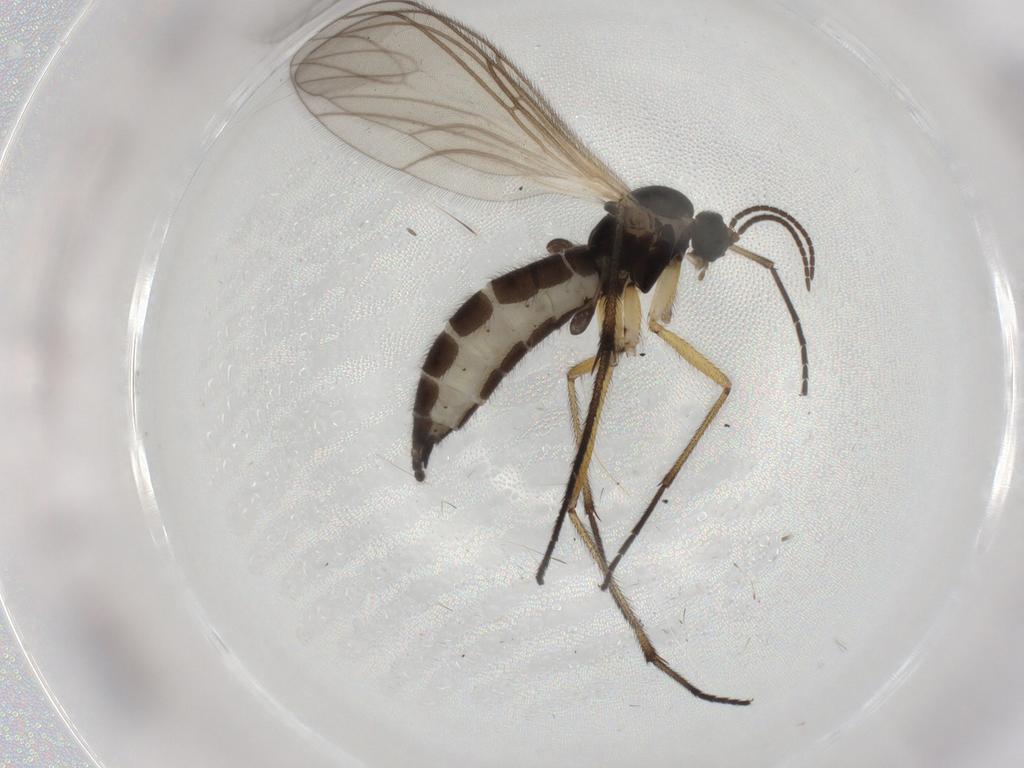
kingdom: Animalia
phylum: Arthropoda
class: Insecta
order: Diptera
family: Sciaridae
